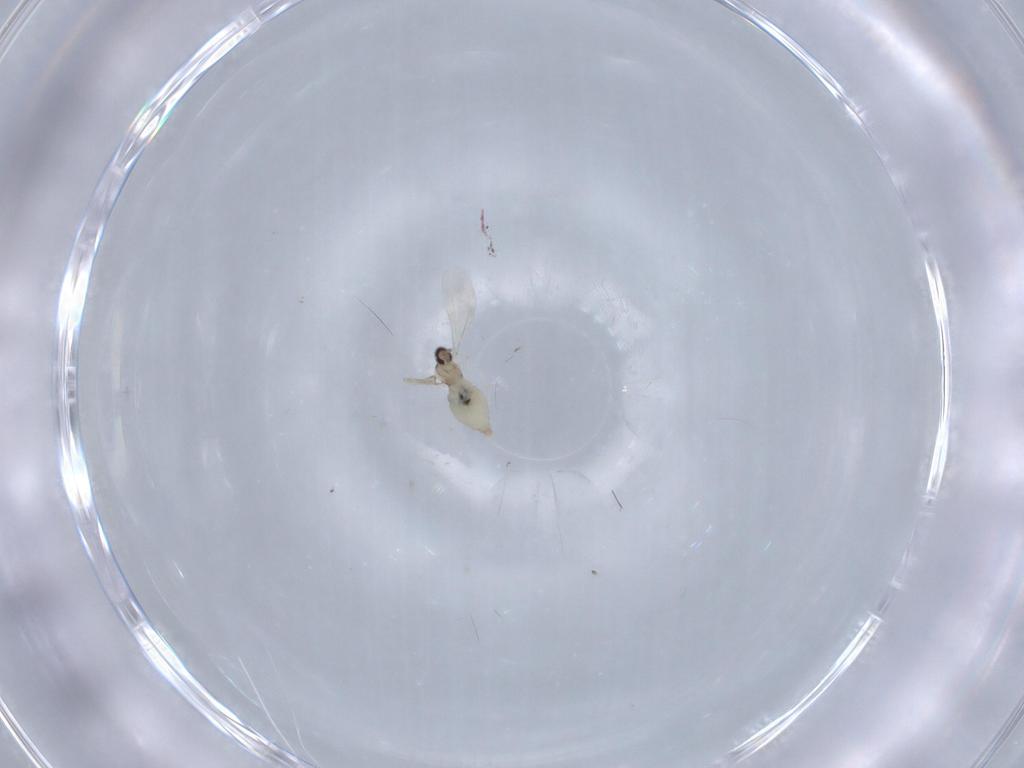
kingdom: Animalia
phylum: Arthropoda
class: Insecta
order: Diptera
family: Cecidomyiidae
